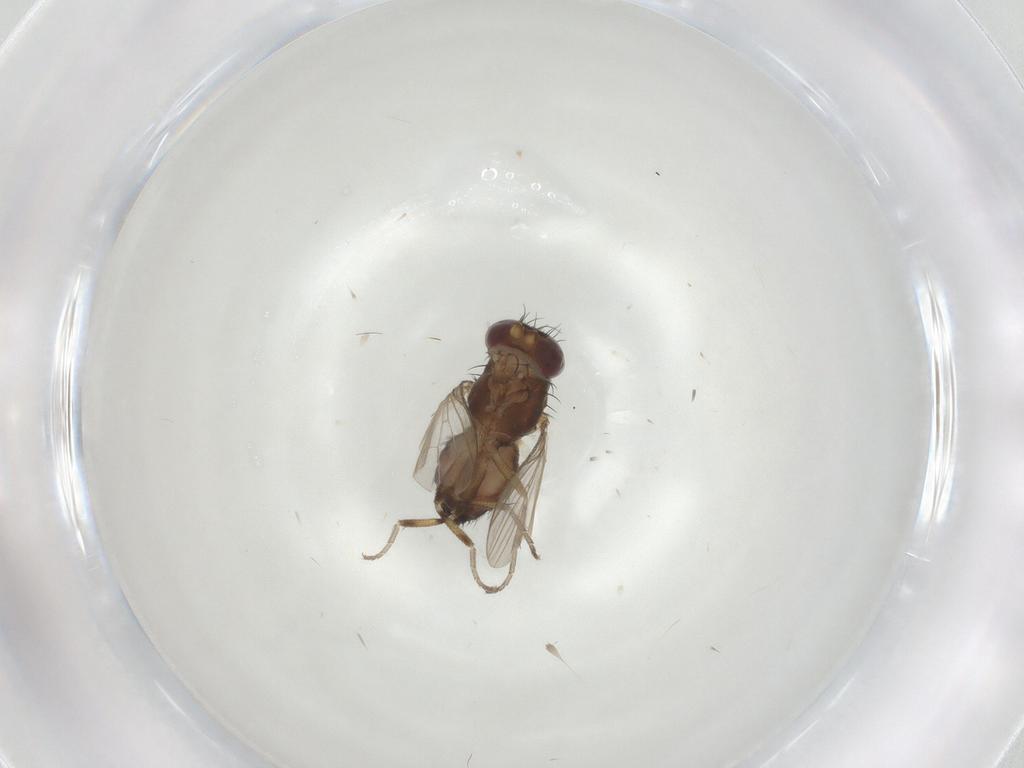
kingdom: Animalia
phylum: Arthropoda
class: Insecta
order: Diptera
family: Heleomyzidae
